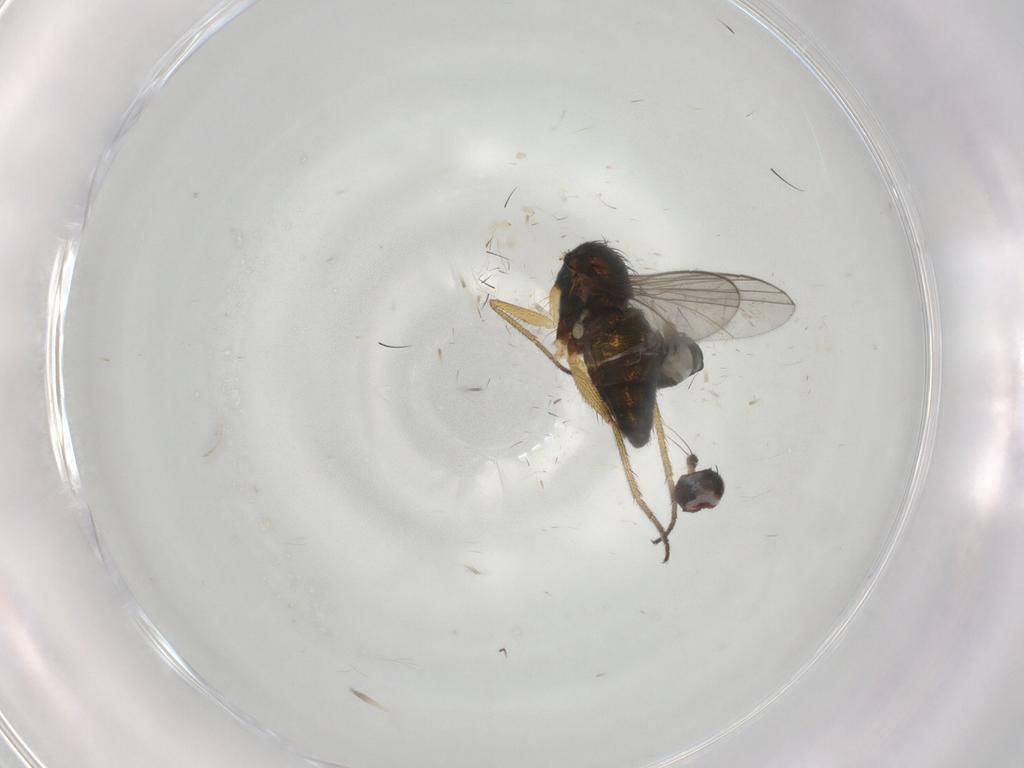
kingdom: Animalia
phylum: Arthropoda
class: Insecta
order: Diptera
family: Dolichopodidae
